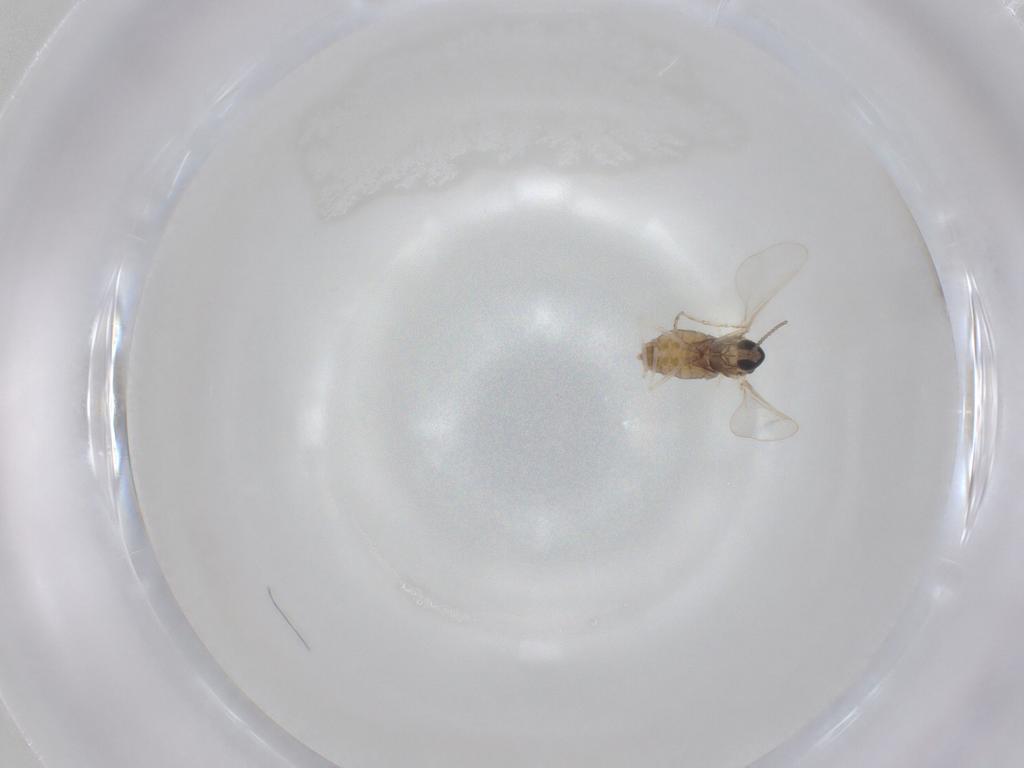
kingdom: Animalia
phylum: Arthropoda
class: Insecta
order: Diptera
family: Cecidomyiidae
